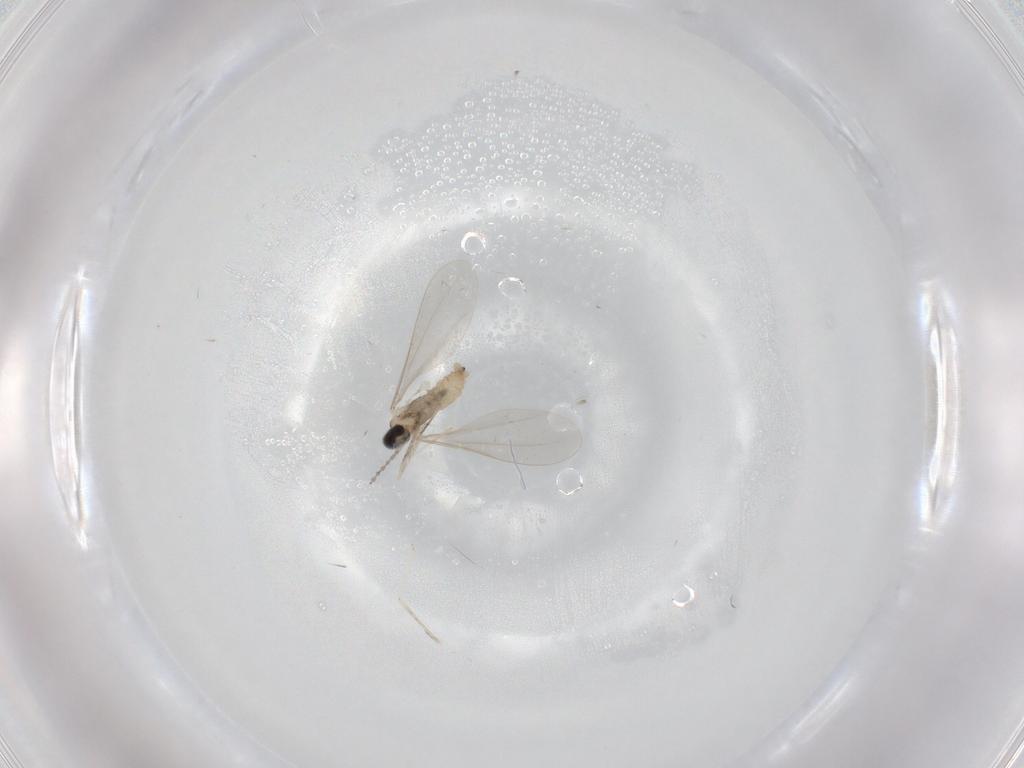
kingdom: Animalia
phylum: Arthropoda
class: Insecta
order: Diptera
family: Cecidomyiidae
